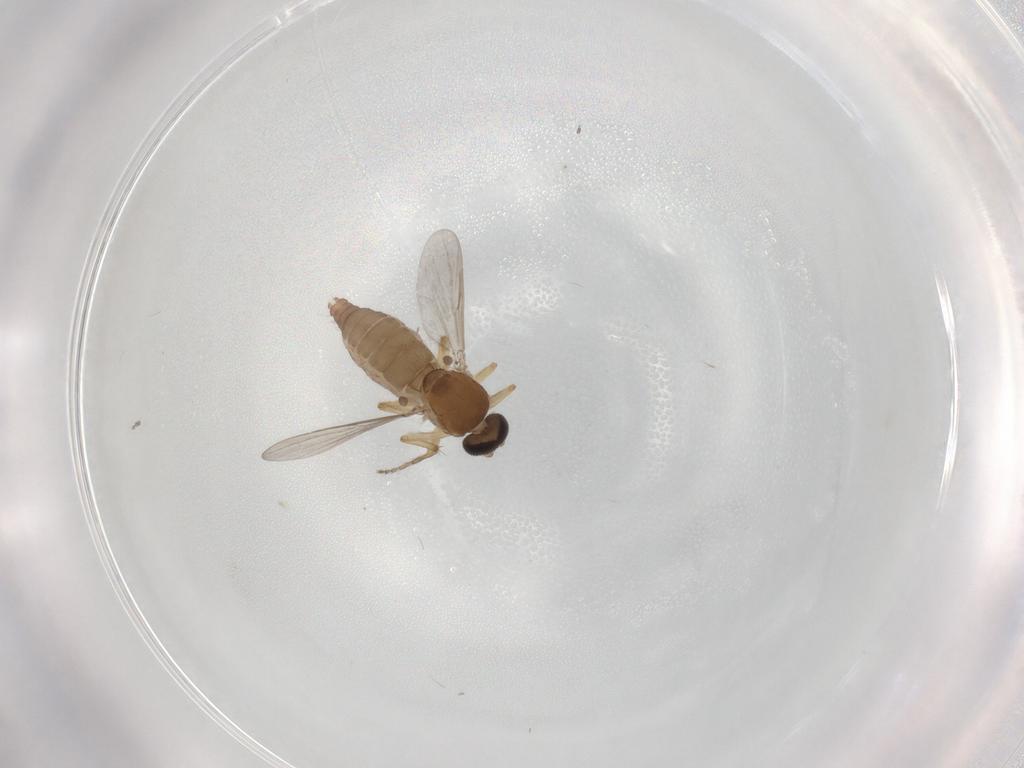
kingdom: Animalia
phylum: Arthropoda
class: Insecta
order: Diptera
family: Ceratopogonidae
